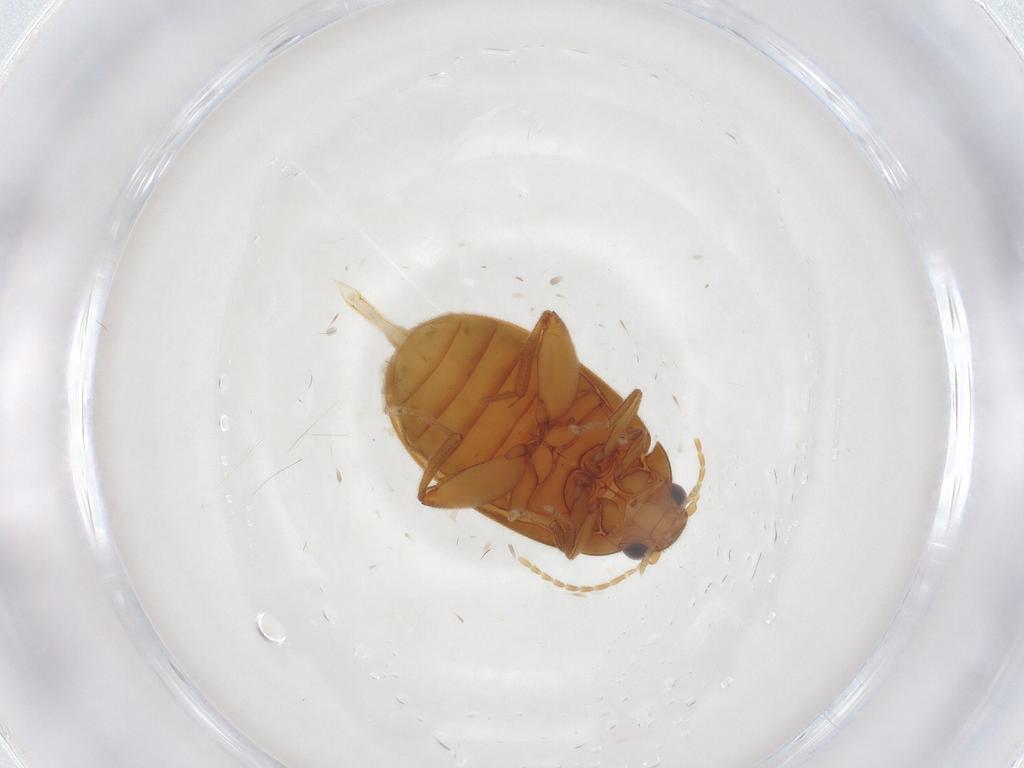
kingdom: Animalia
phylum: Arthropoda
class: Insecta
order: Coleoptera
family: Scirtidae
